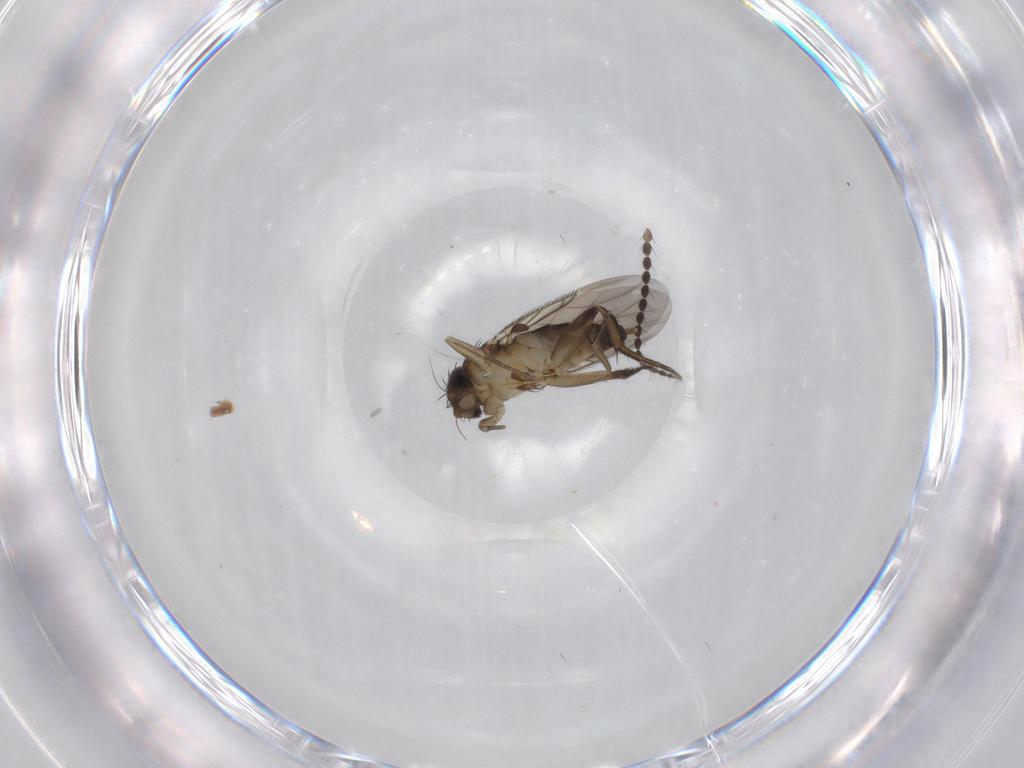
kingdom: Animalia
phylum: Arthropoda
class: Insecta
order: Diptera
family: Phoridae
